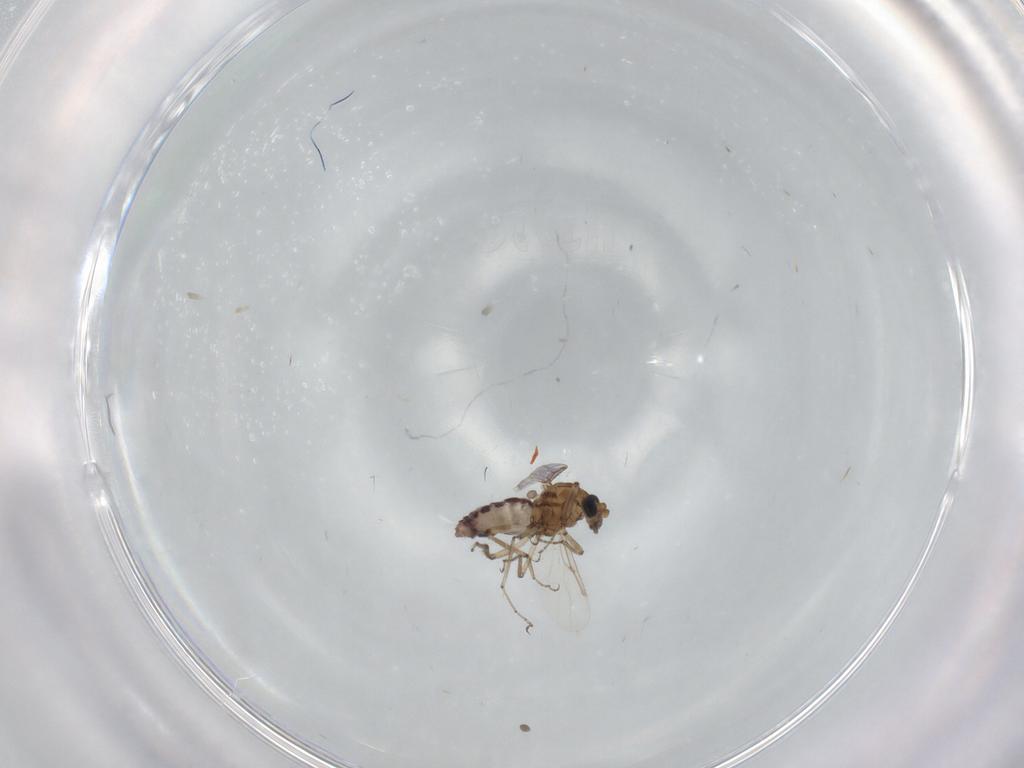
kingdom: Animalia
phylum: Arthropoda
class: Insecta
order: Diptera
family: Ceratopogonidae
